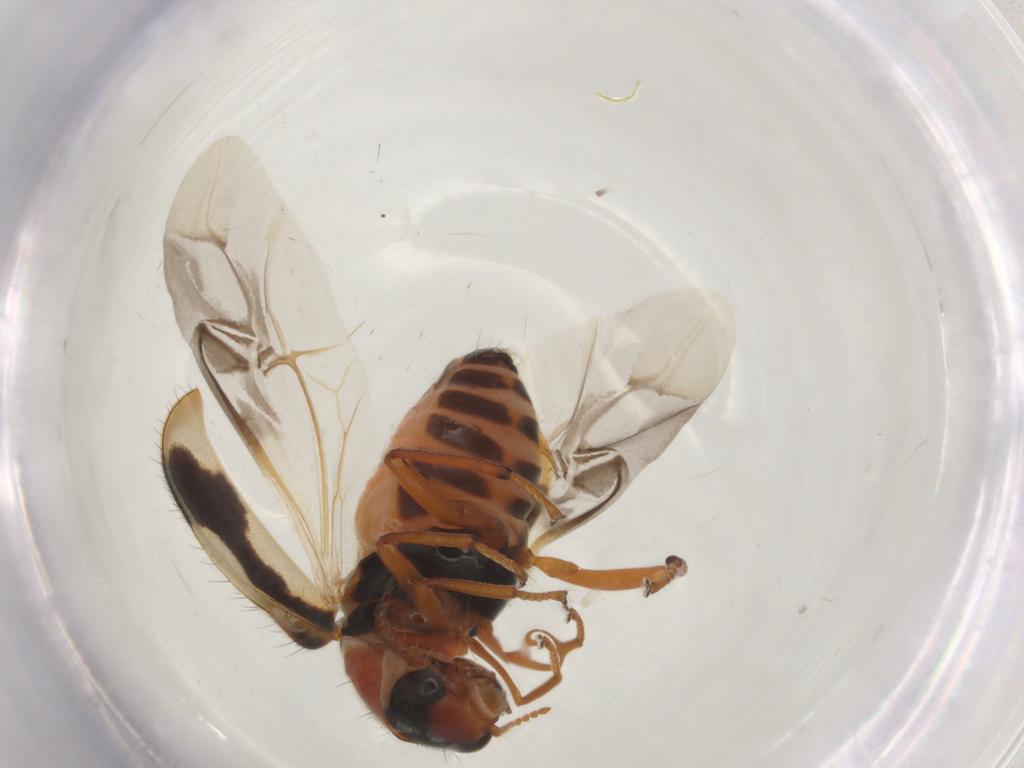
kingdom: Animalia
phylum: Arthropoda
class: Insecta
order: Coleoptera
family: Melyridae
